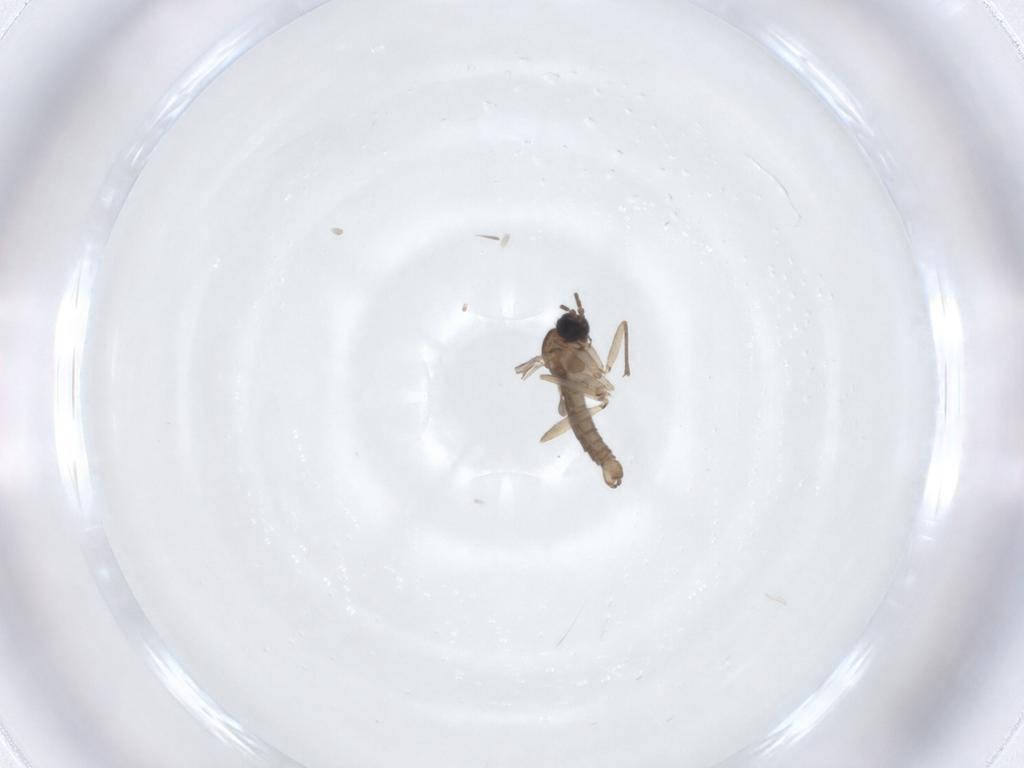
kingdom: Animalia
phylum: Arthropoda
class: Insecta
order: Diptera
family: Sciaridae
